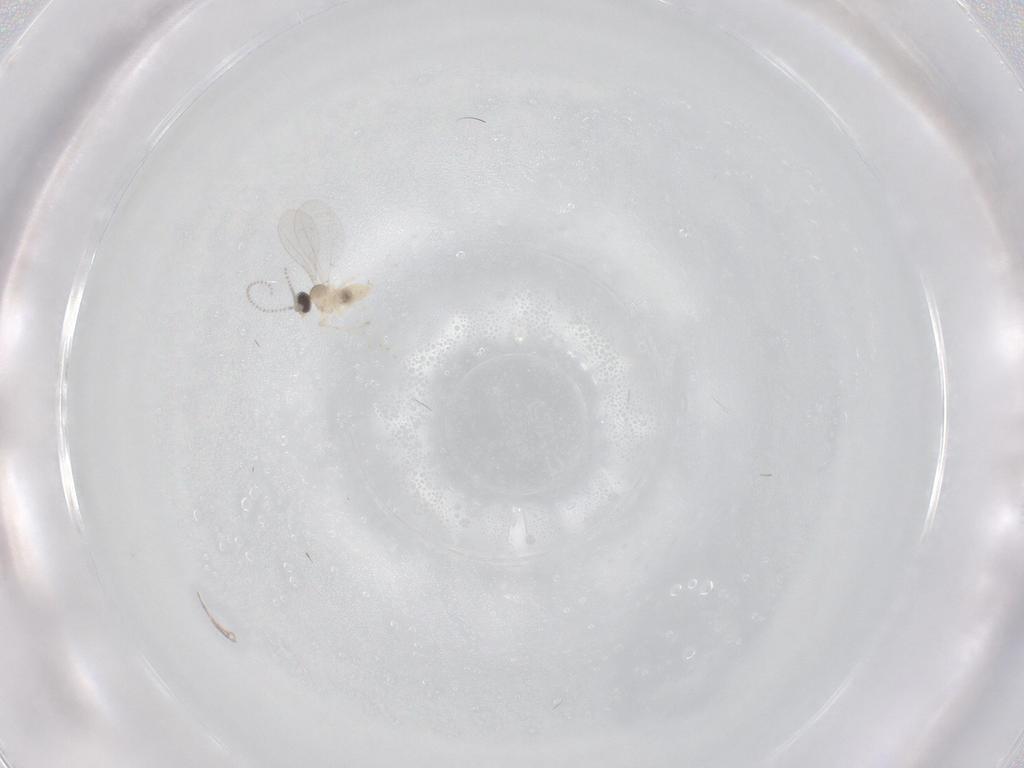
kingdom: Animalia
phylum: Arthropoda
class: Insecta
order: Diptera
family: Cecidomyiidae
